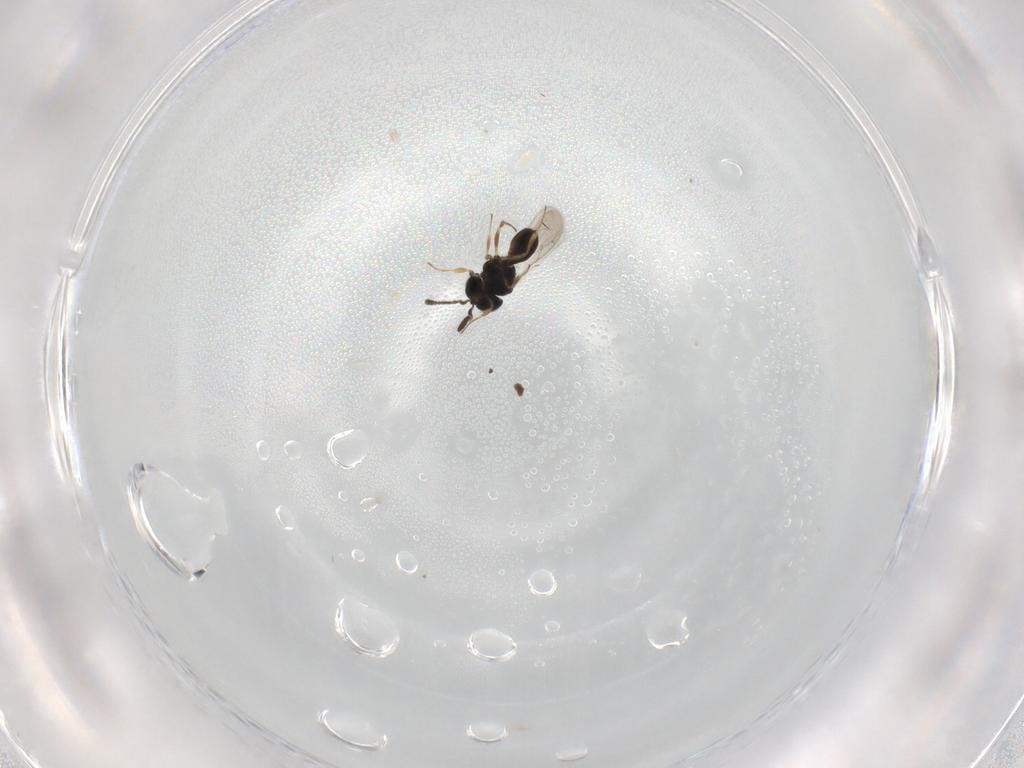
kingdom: Animalia
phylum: Arthropoda
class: Insecta
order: Hymenoptera
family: Scelionidae
